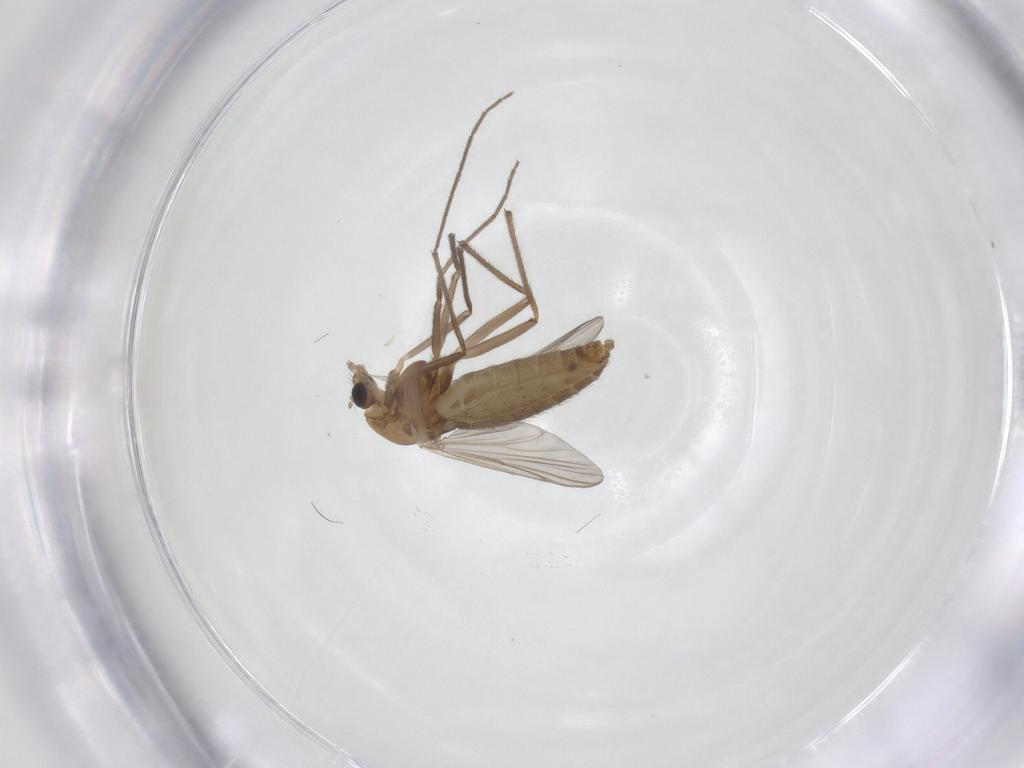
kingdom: Animalia
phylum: Arthropoda
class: Insecta
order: Diptera
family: Chironomidae
